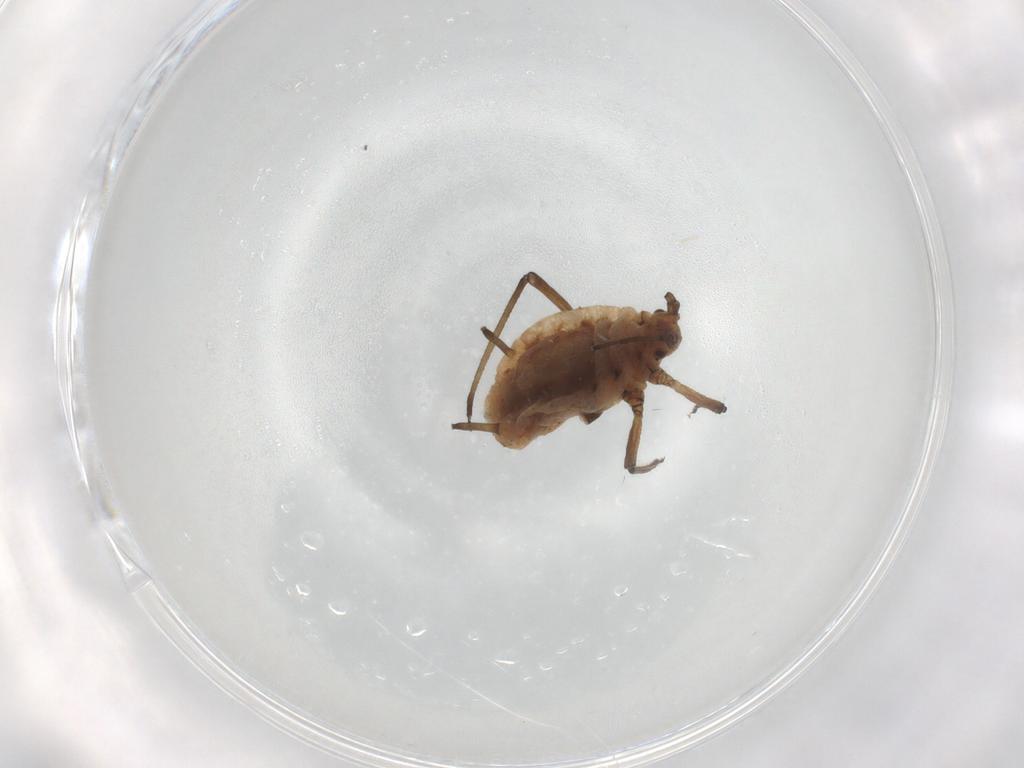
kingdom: Animalia
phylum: Arthropoda
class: Insecta
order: Hemiptera
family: Aphididae
